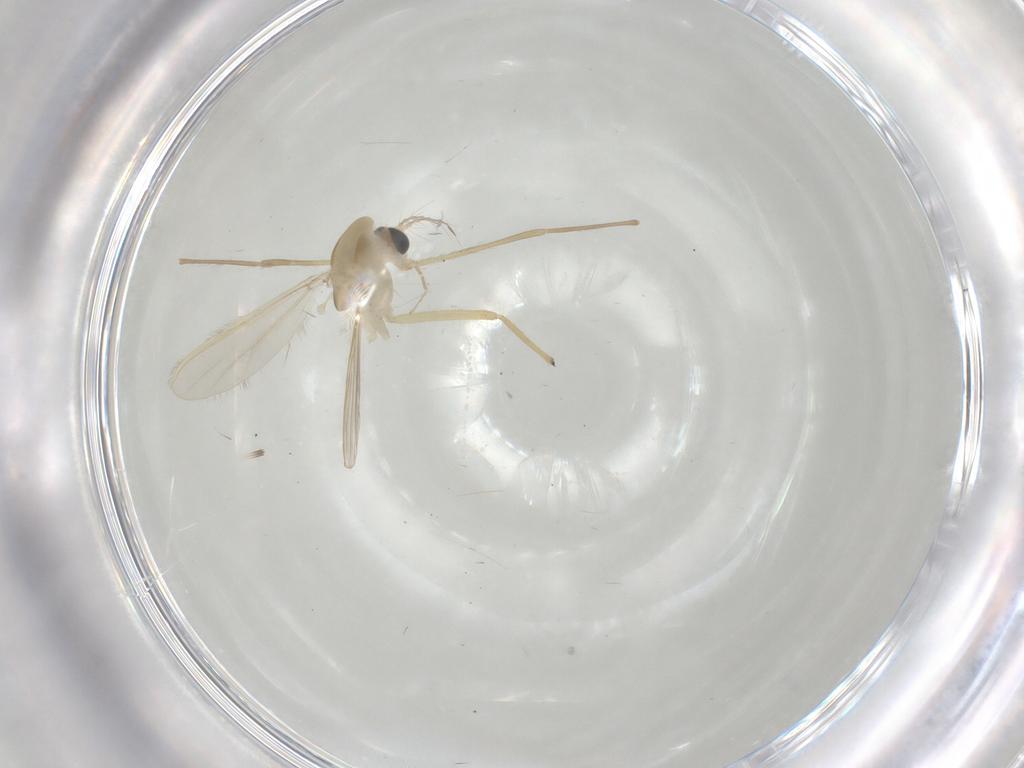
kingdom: Animalia
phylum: Arthropoda
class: Insecta
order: Diptera
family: Chironomidae
